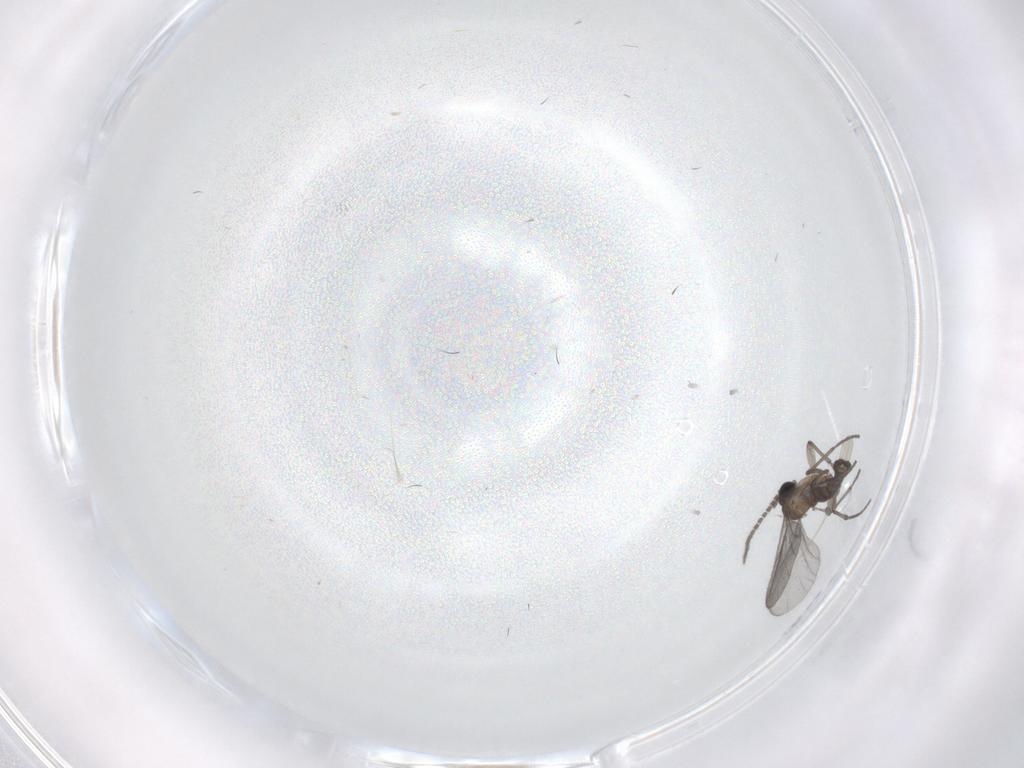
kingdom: Animalia
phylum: Arthropoda
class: Insecta
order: Diptera
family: Sciaridae
